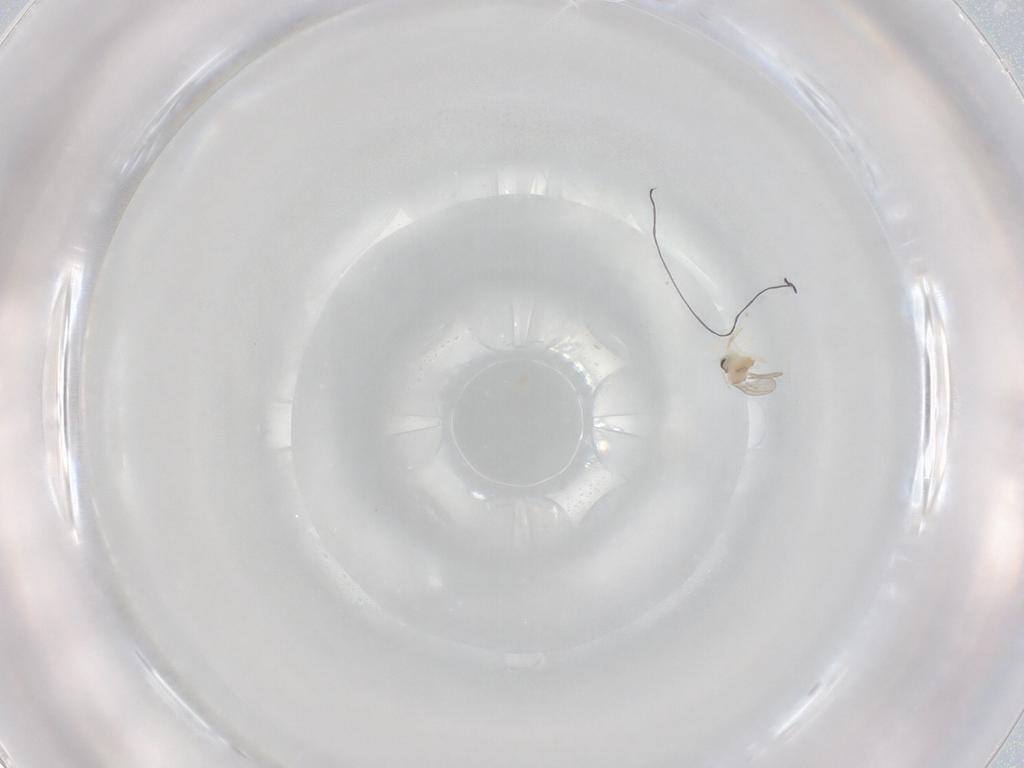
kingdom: Animalia
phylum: Arthropoda
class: Insecta
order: Diptera
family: Cecidomyiidae
